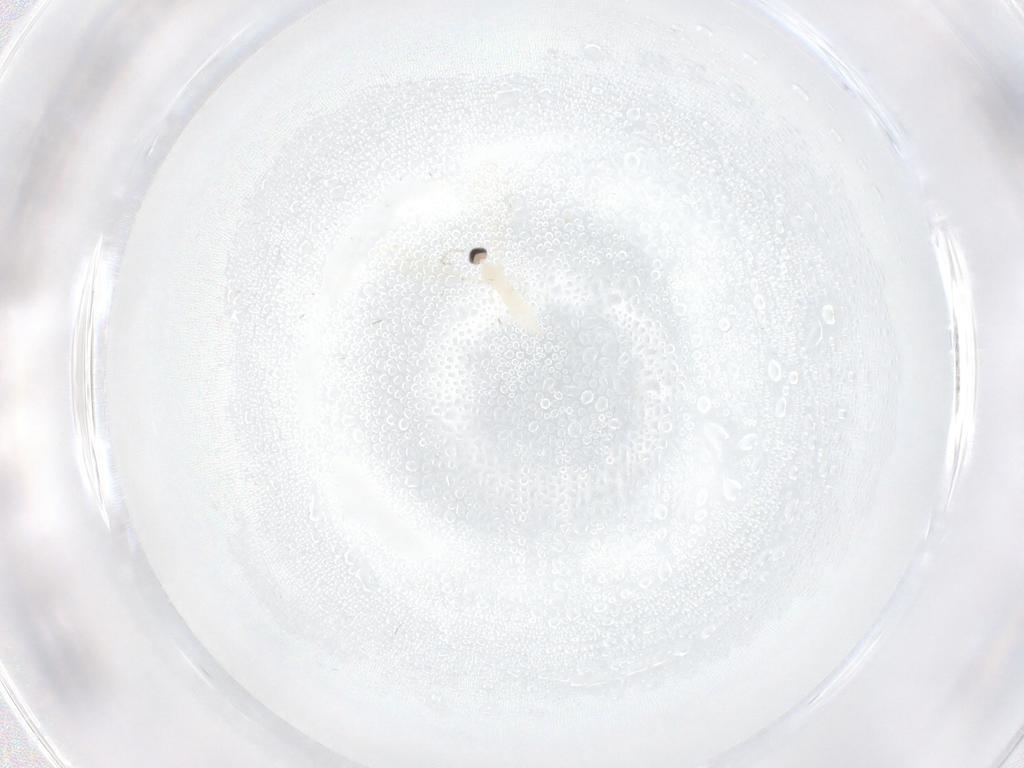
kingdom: Animalia
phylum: Arthropoda
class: Insecta
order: Diptera
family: Cecidomyiidae
